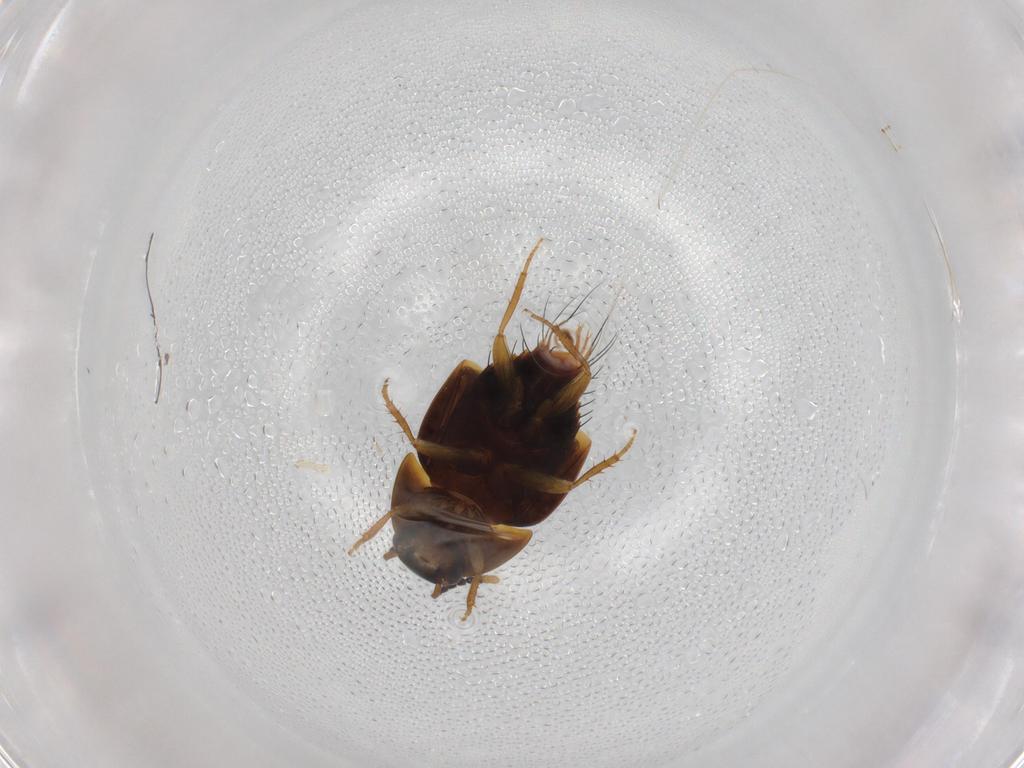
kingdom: Animalia
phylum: Arthropoda
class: Insecta
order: Coleoptera
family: Staphylinidae
